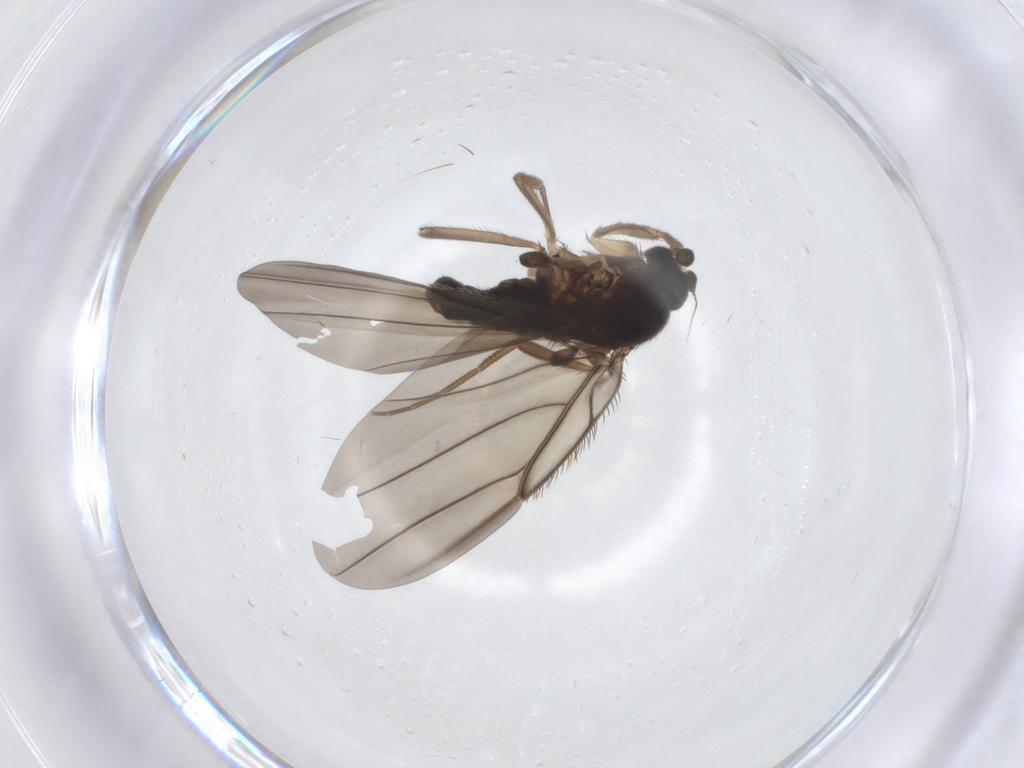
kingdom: Animalia
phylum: Arthropoda
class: Insecta
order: Diptera
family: Phoridae
